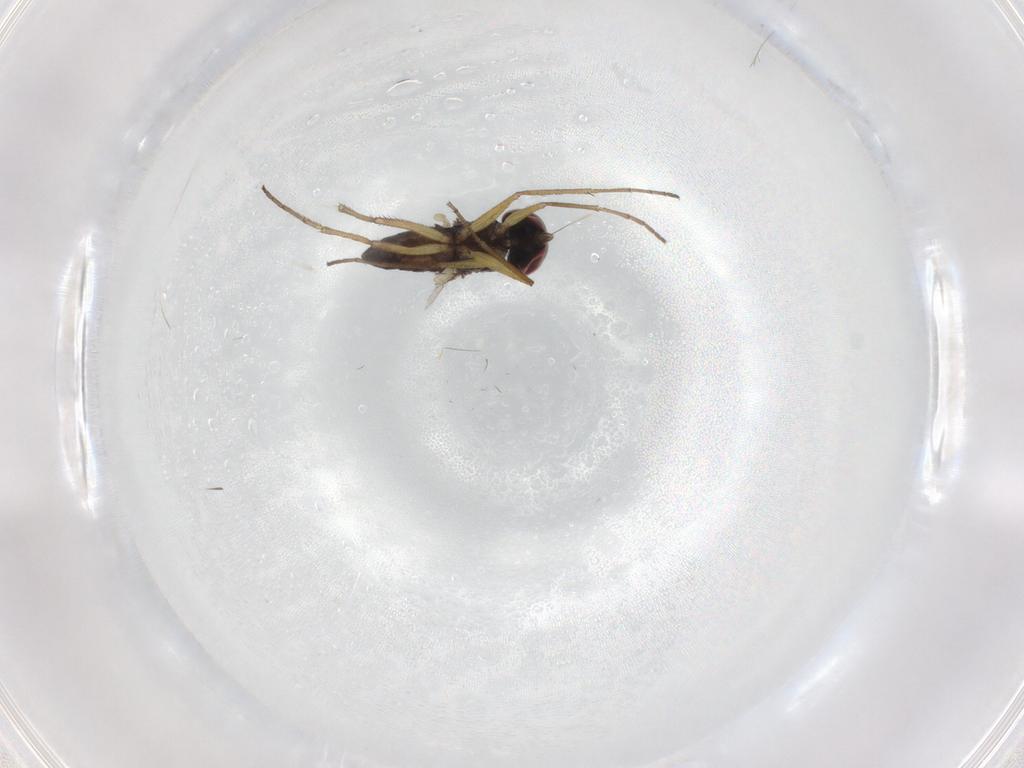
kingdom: Animalia
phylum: Arthropoda
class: Insecta
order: Diptera
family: Dolichopodidae
